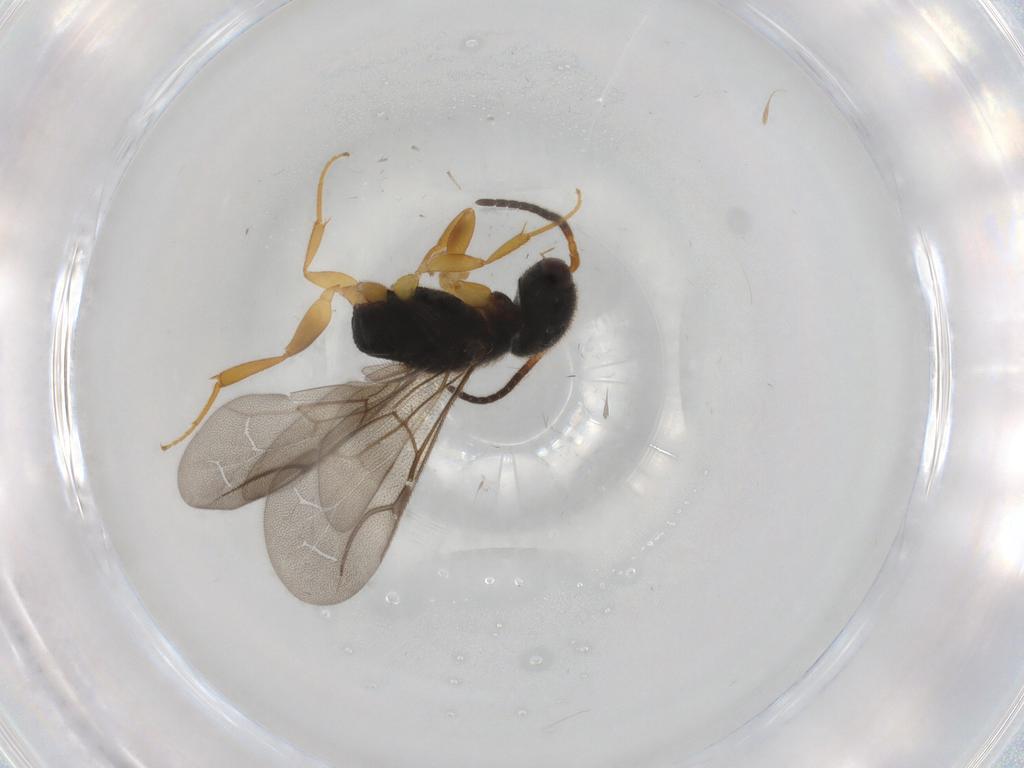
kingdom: Animalia
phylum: Arthropoda
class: Insecta
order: Hymenoptera
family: Bethylidae
